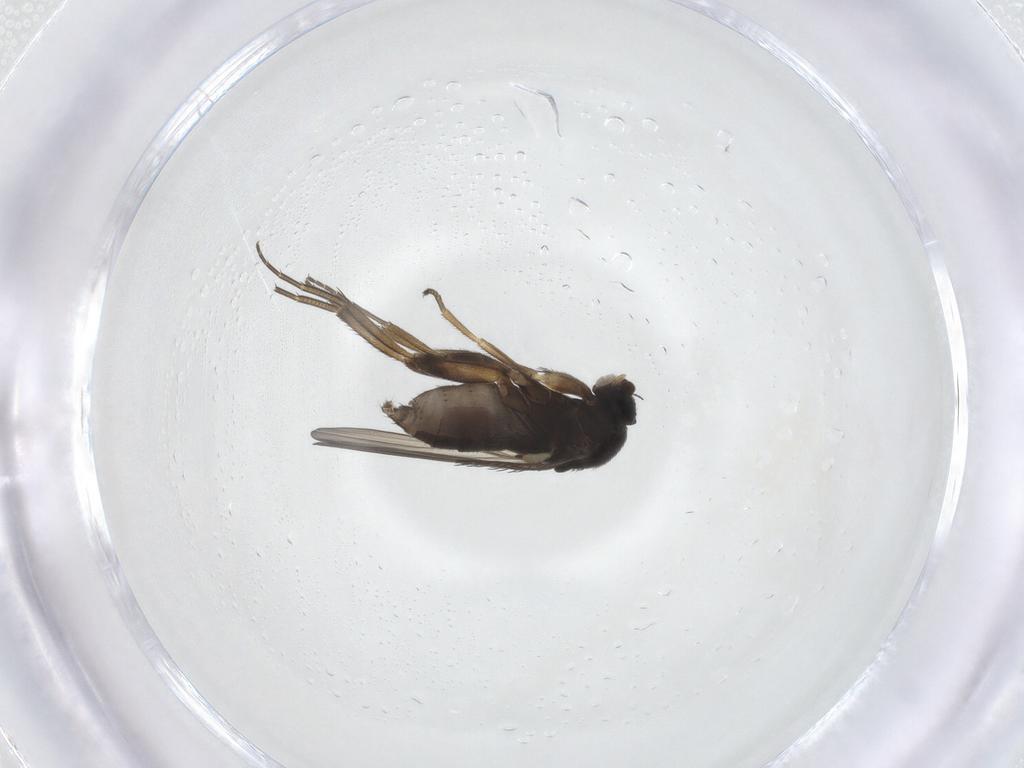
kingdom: Animalia
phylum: Arthropoda
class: Insecta
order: Diptera
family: Phoridae
